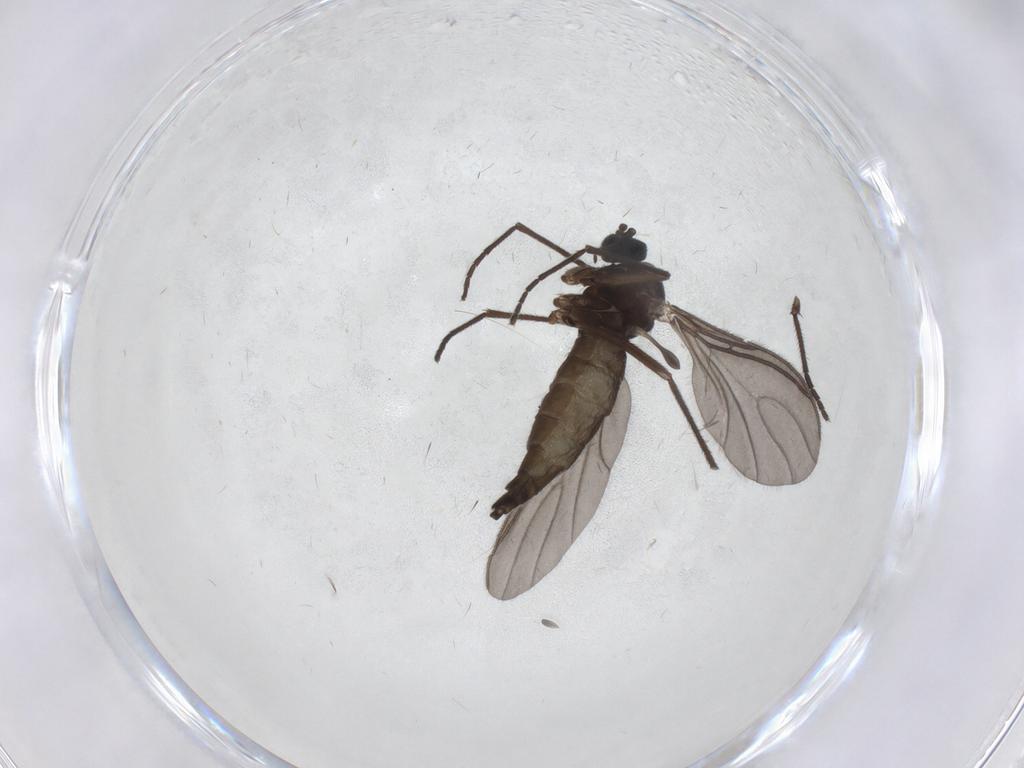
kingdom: Animalia
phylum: Arthropoda
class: Insecta
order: Diptera
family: Sciaridae
